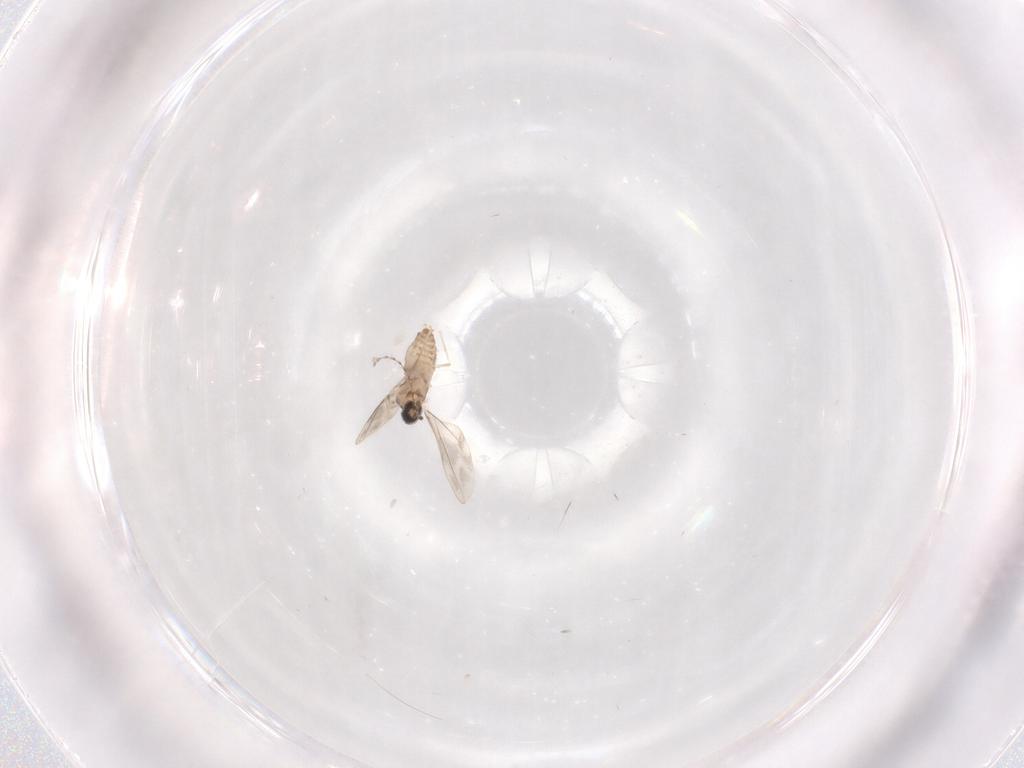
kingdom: Animalia
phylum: Arthropoda
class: Insecta
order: Diptera
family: Cecidomyiidae
